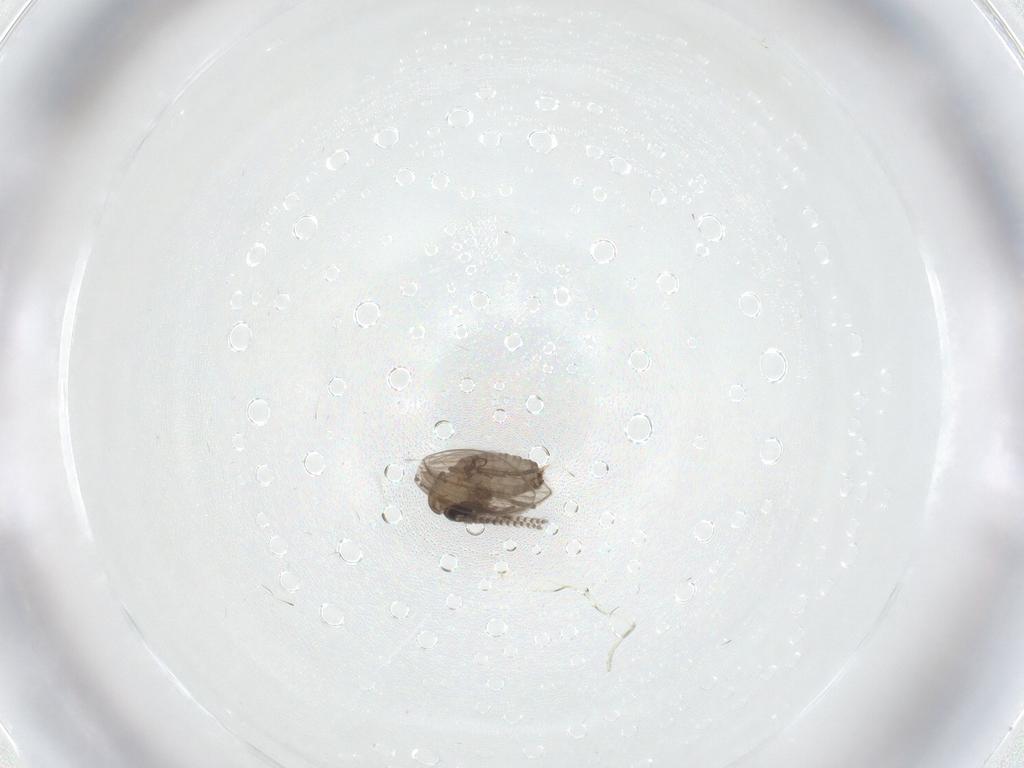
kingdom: Animalia
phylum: Arthropoda
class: Insecta
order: Diptera
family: Psychodidae
